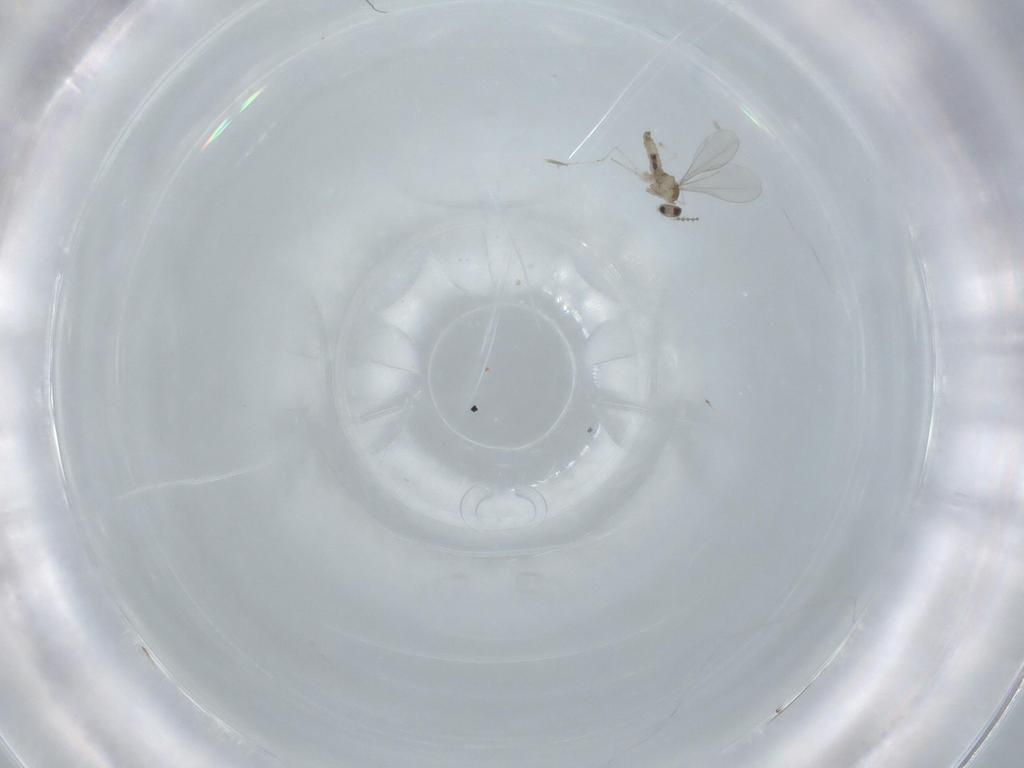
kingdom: Animalia
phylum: Arthropoda
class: Insecta
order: Diptera
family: Cecidomyiidae
